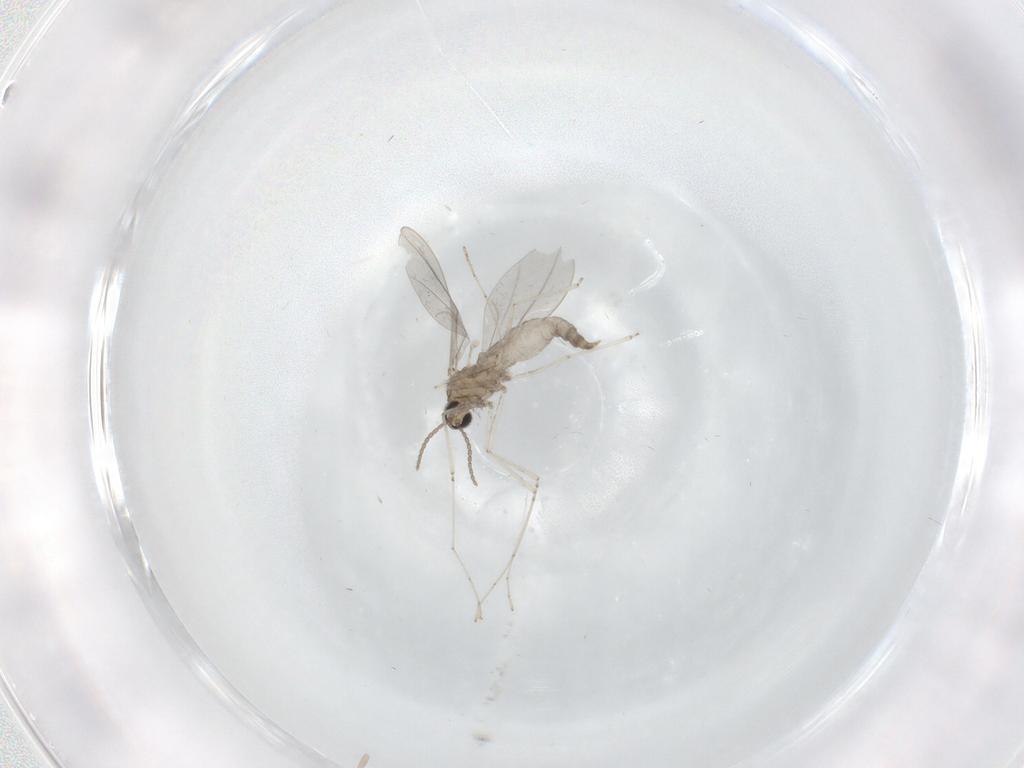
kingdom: Animalia
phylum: Arthropoda
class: Insecta
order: Diptera
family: Cecidomyiidae
